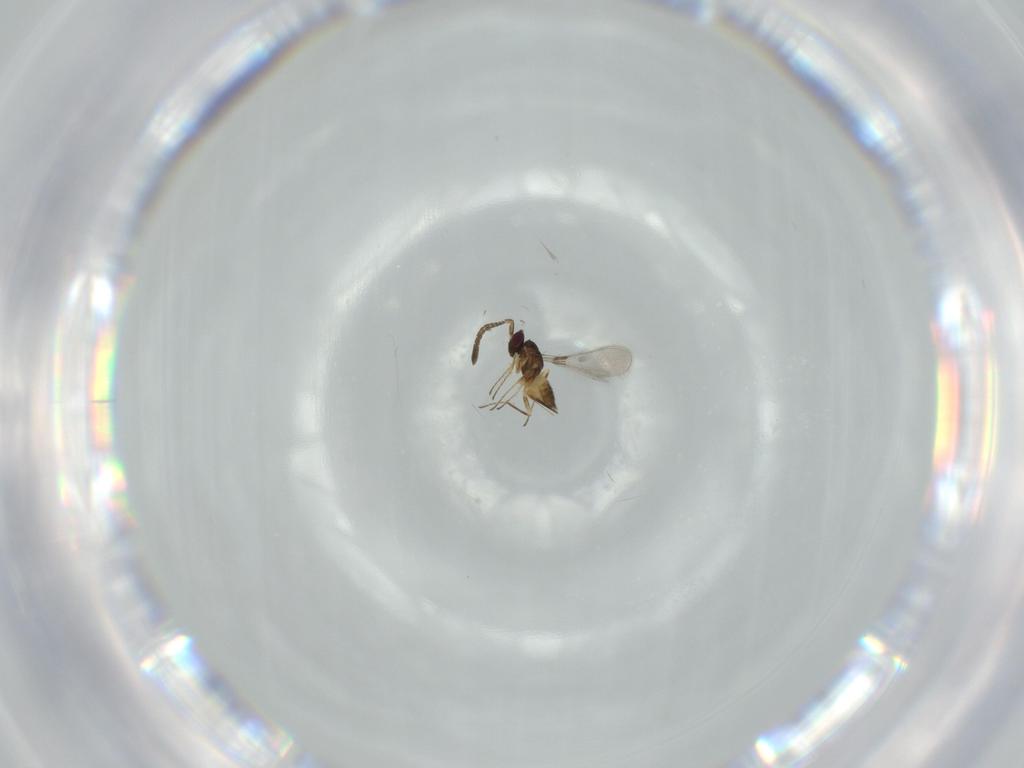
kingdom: Animalia
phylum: Arthropoda
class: Insecta
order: Hymenoptera
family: Mymaridae
